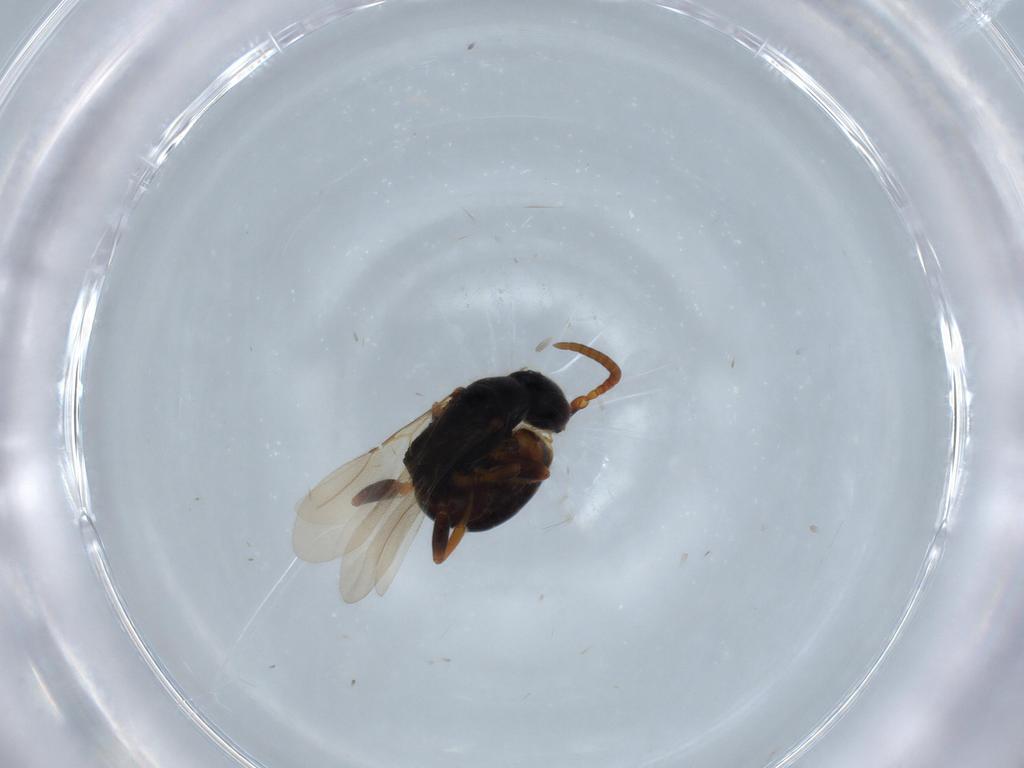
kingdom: Animalia
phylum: Arthropoda
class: Insecta
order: Hymenoptera
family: Bethylidae
